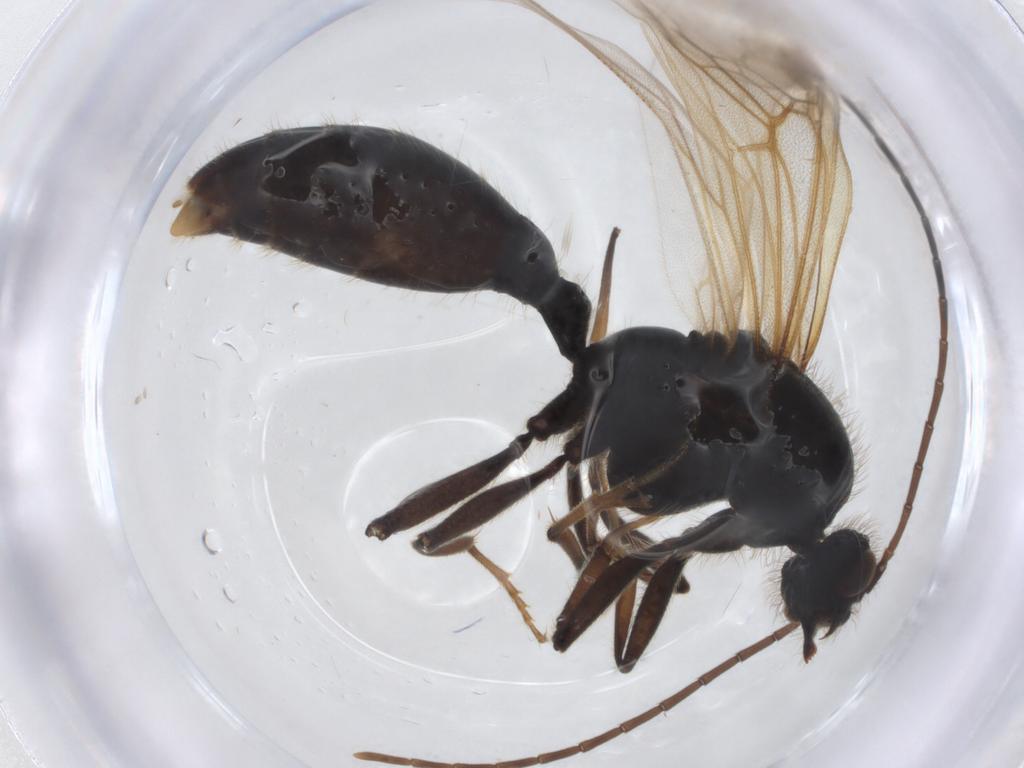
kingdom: Animalia
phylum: Arthropoda
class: Insecta
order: Hymenoptera
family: Formicidae
